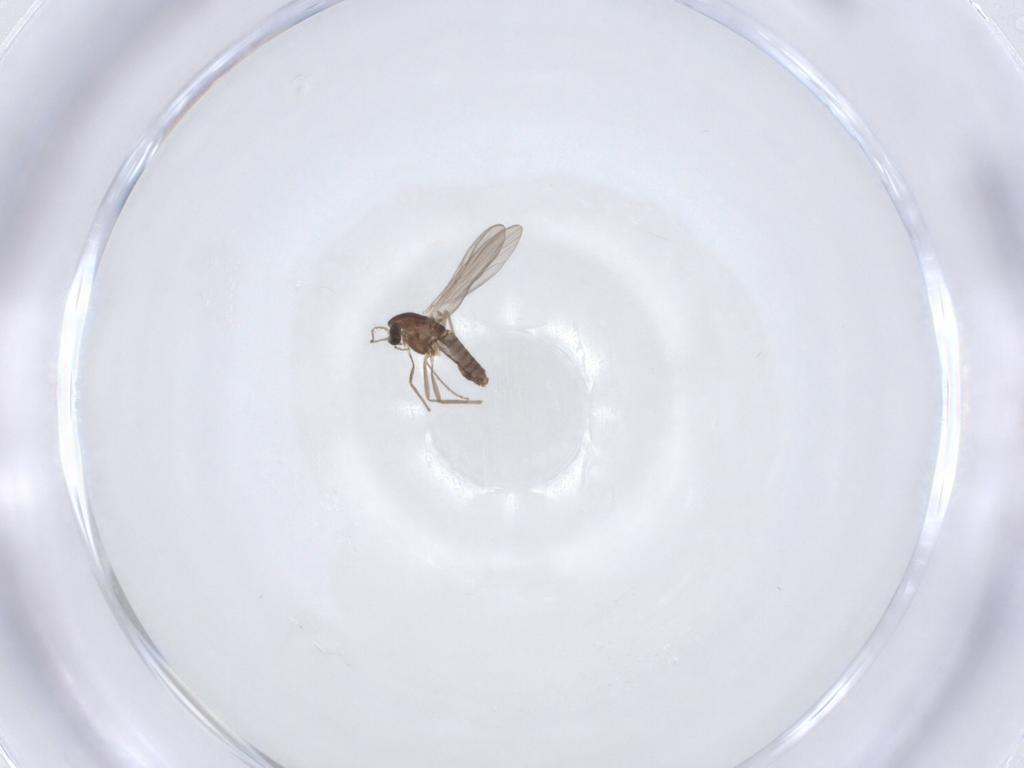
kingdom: Animalia
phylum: Arthropoda
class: Insecta
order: Diptera
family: Chironomidae
